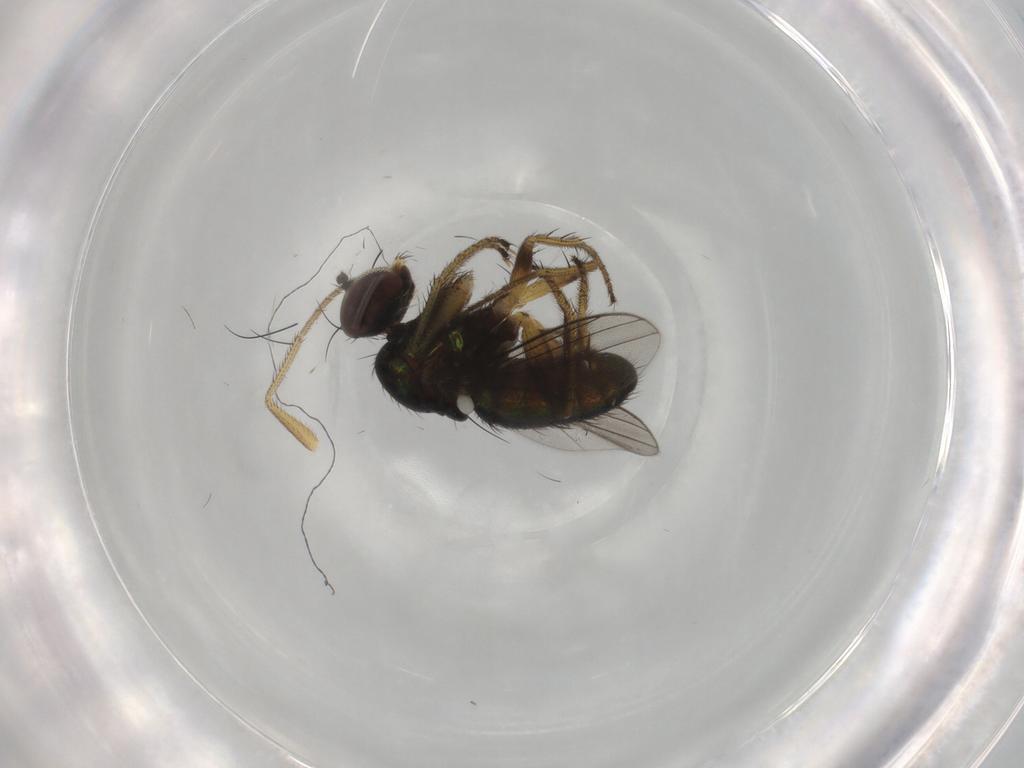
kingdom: Animalia
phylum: Arthropoda
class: Insecta
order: Diptera
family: Dolichopodidae
